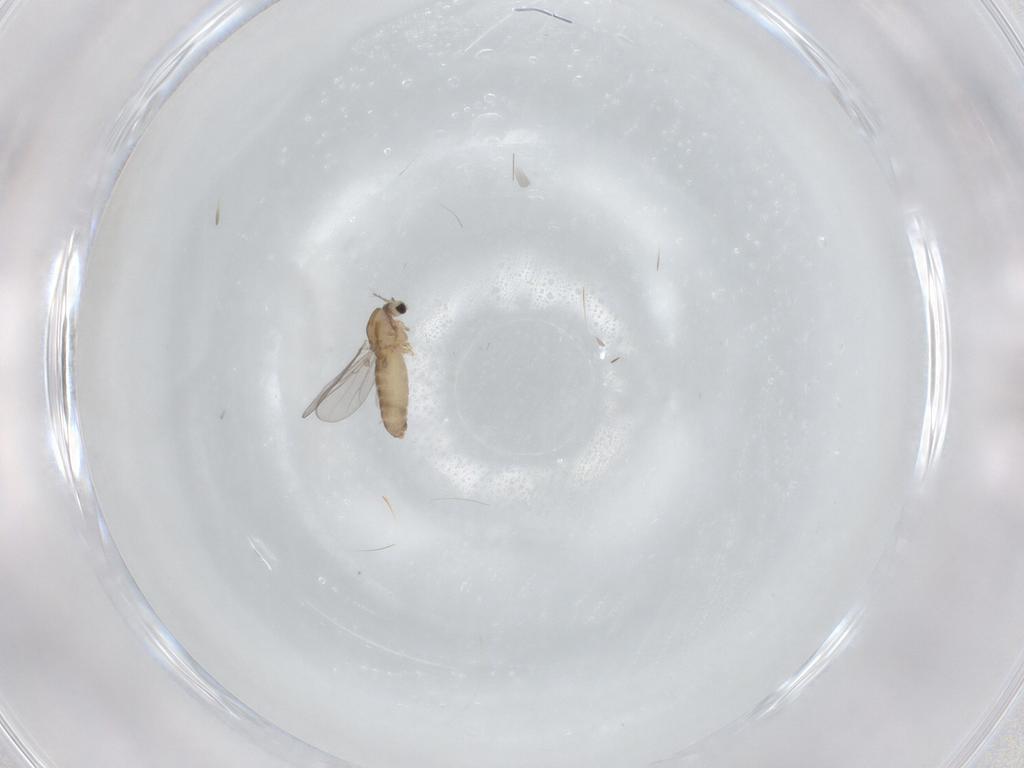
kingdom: Animalia
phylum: Arthropoda
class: Insecta
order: Diptera
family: Chironomidae
